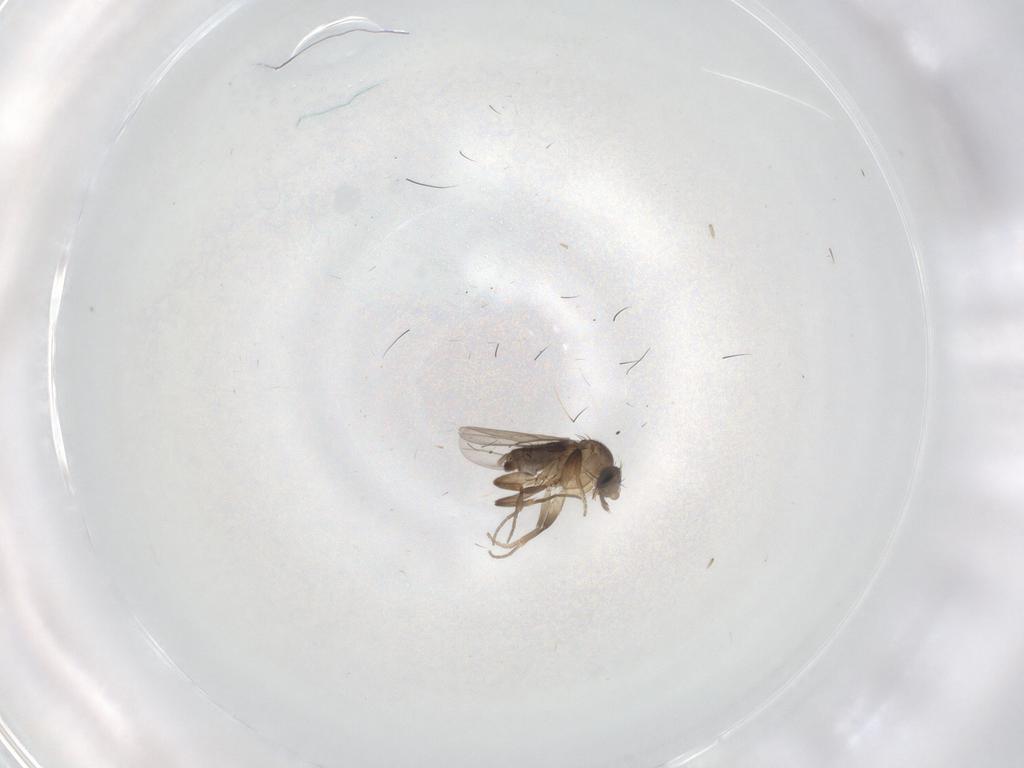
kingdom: Animalia
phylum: Arthropoda
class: Insecta
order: Diptera
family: Phoridae
